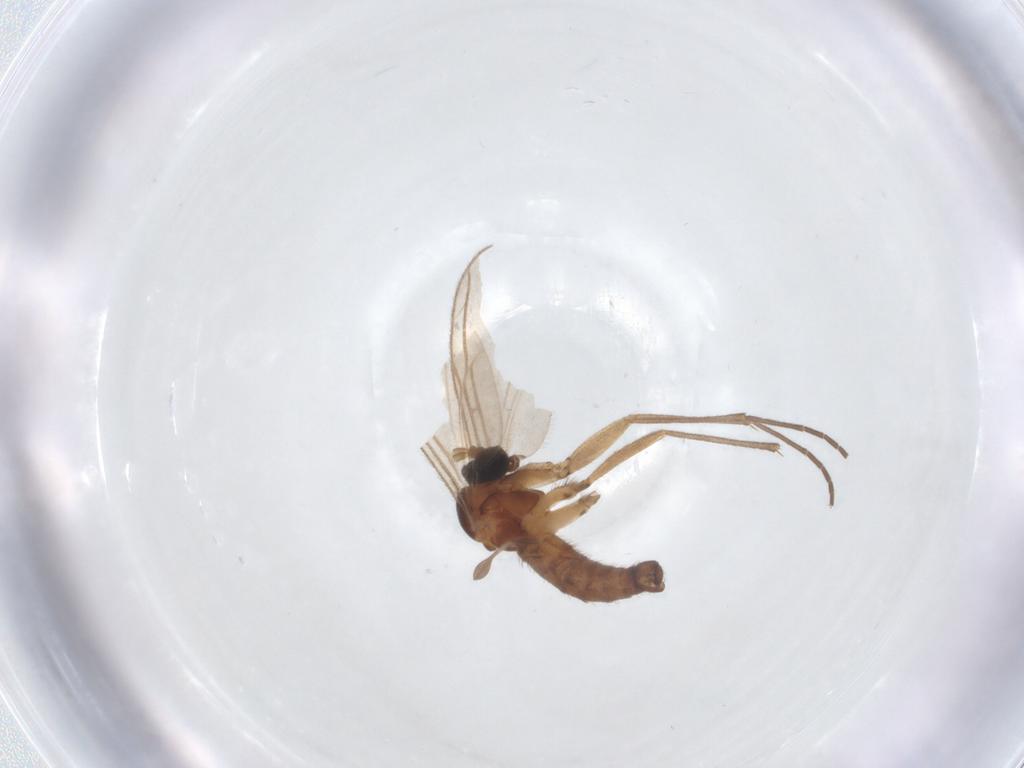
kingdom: Animalia
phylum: Arthropoda
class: Insecta
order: Diptera
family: Sciaridae
